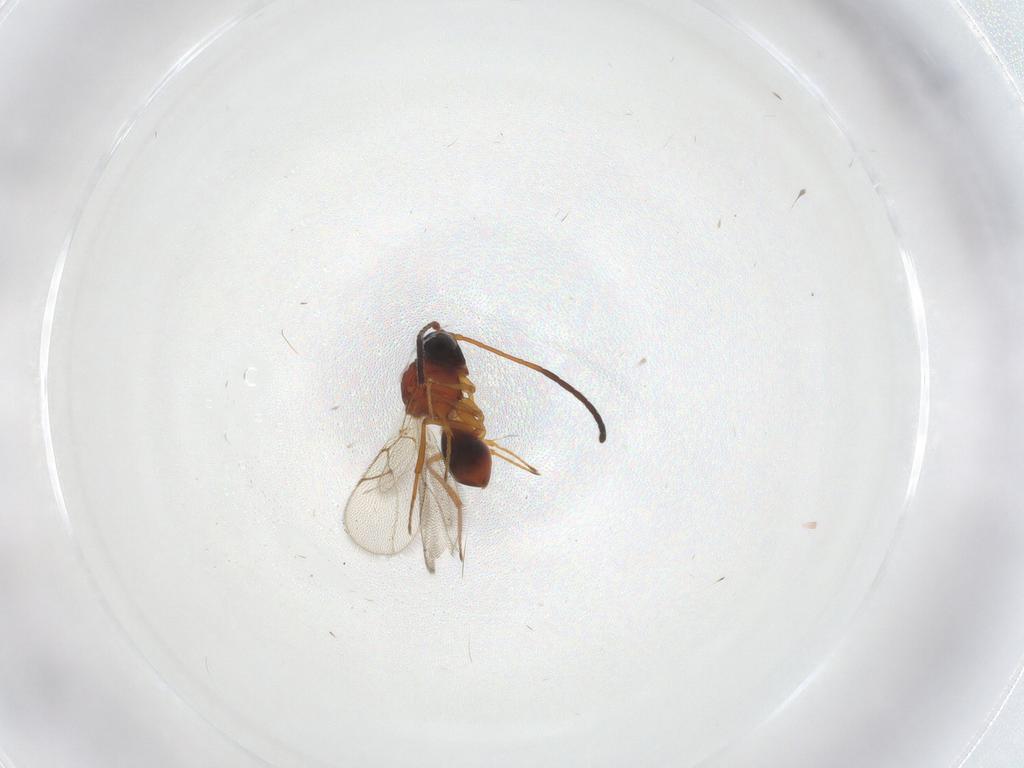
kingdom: Animalia
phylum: Arthropoda
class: Insecta
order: Hymenoptera
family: Figitidae
